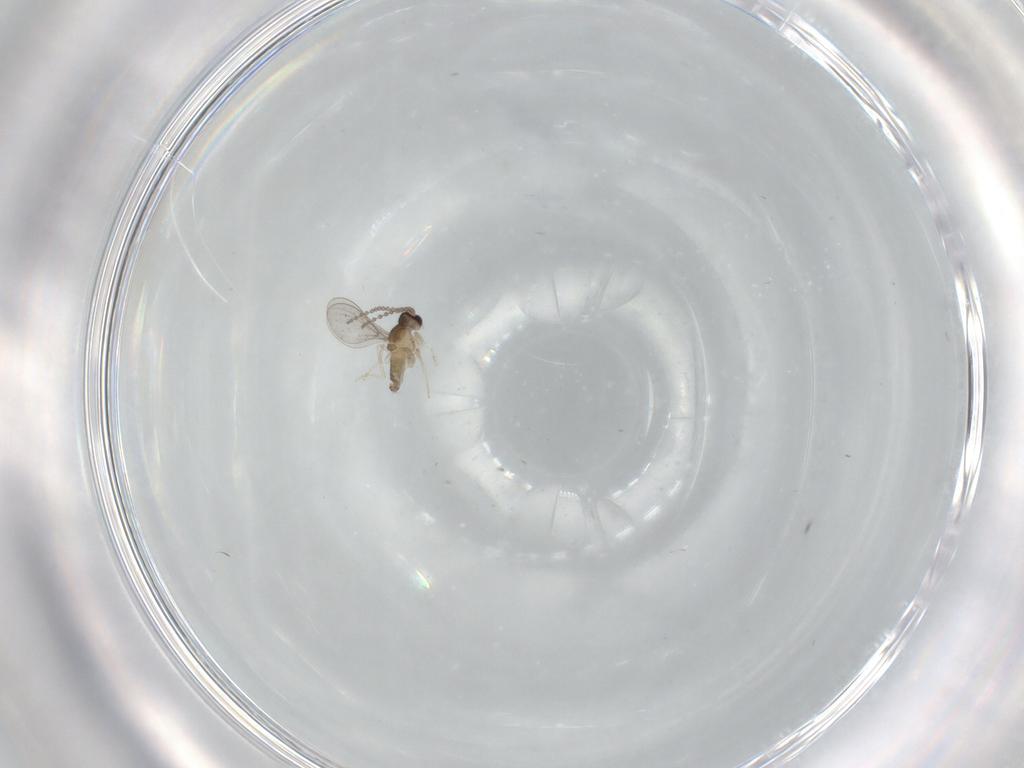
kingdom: Animalia
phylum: Arthropoda
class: Insecta
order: Diptera
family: Cecidomyiidae
